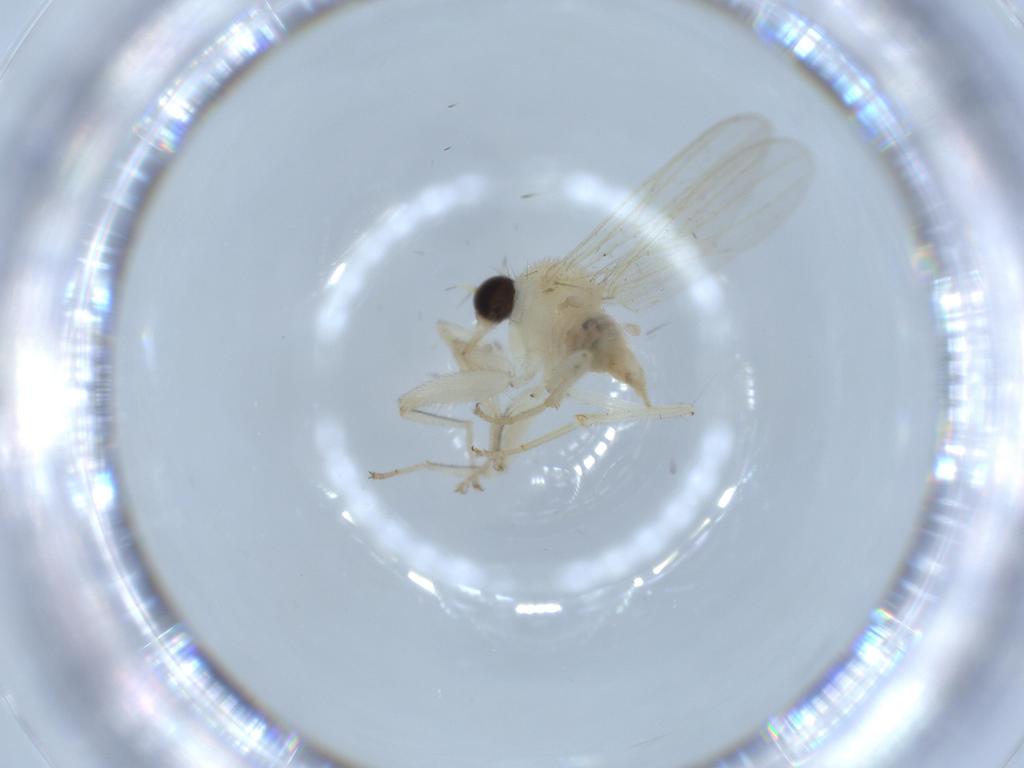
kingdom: Animalia
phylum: Arthropoda
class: Insecta
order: Diptera
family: Hybotidae
